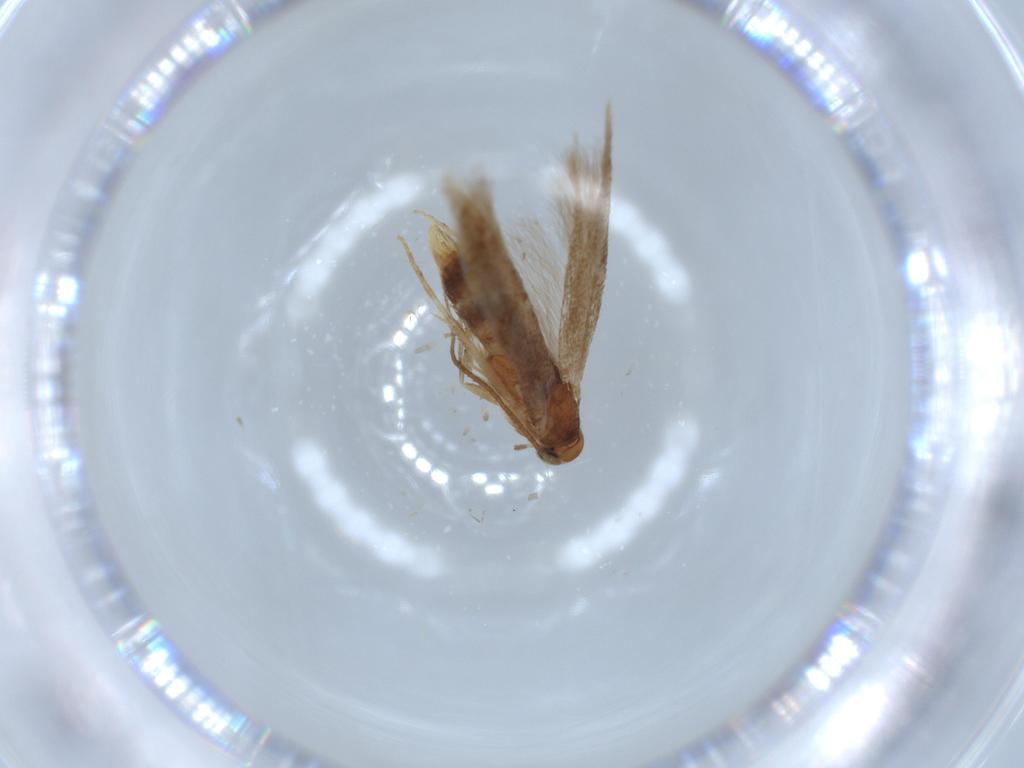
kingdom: Animalia
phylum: Arthropoda
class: Insecta
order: Lepidoptera
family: Elachistidae
